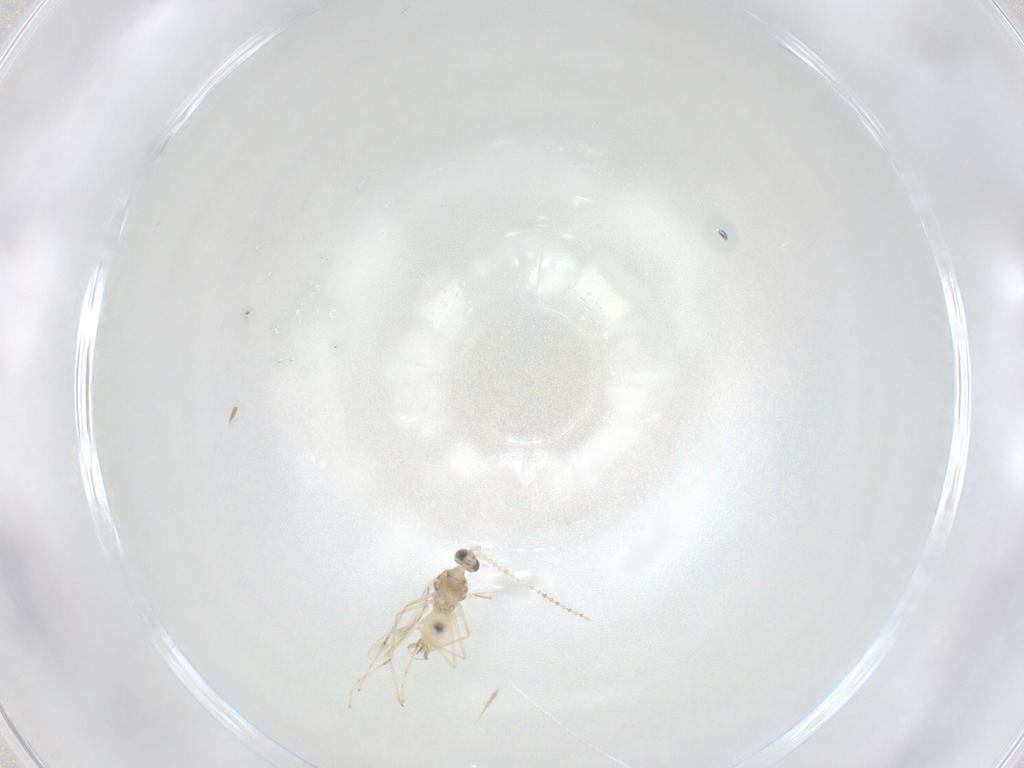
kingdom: Animalia
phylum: Arthropoda
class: Insecta
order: Diptera
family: Cecidomyiidae
